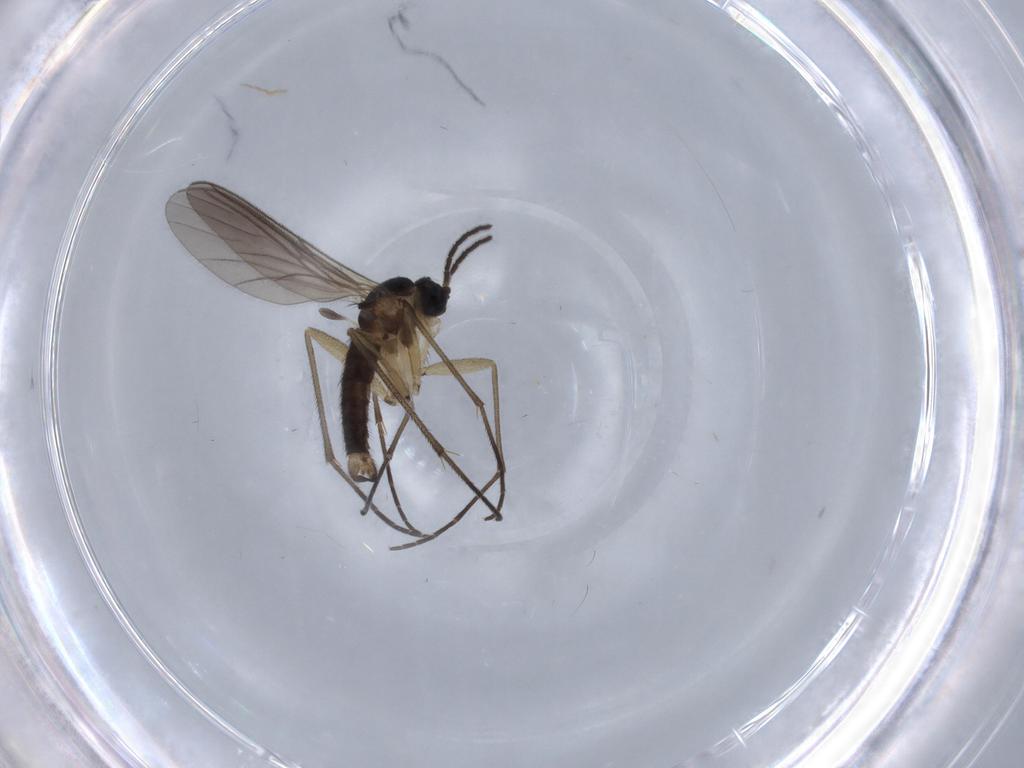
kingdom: Animalia
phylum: Arthropoda
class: Insecta
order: Diptera
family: Sciaridae
